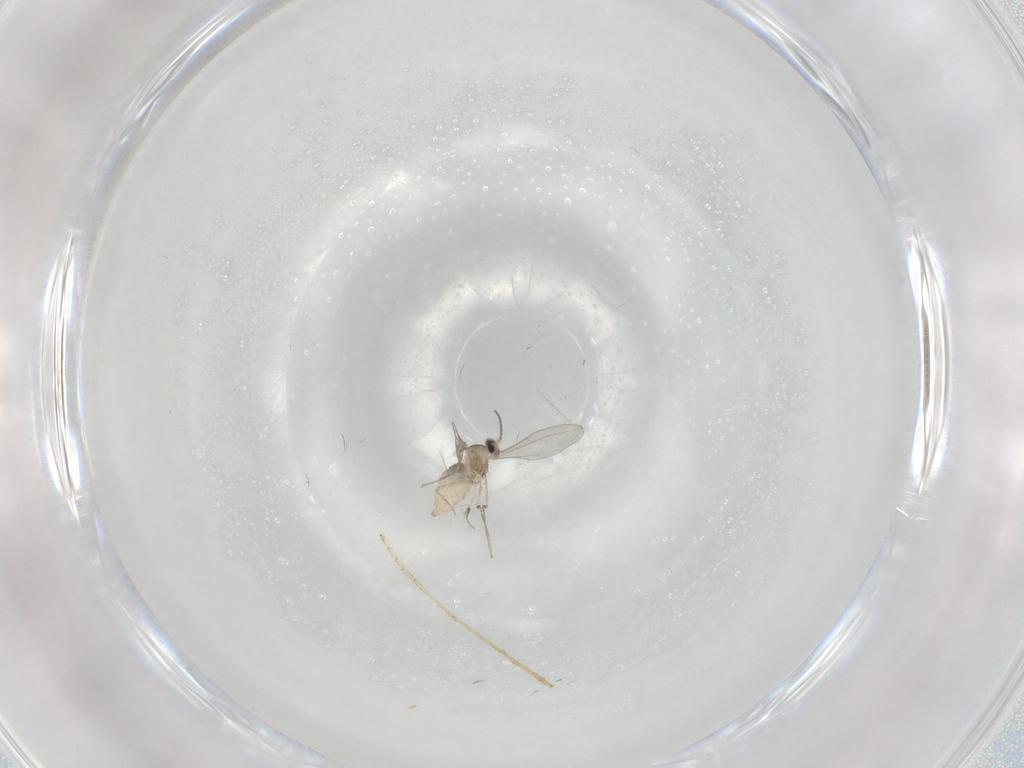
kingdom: Animalia
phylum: Arthropoda
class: Insecta
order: Diptera
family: Cecidomyiidae
